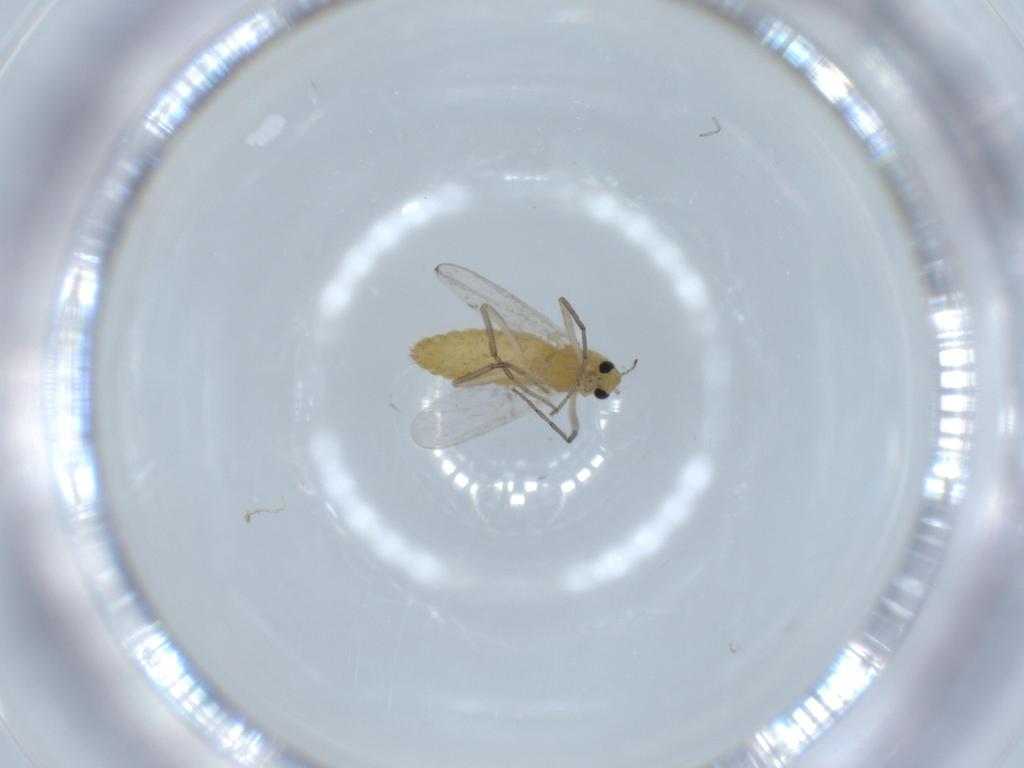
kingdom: Animalia
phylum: Arthropoda
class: Insecta
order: Diptera
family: Chironomidae
